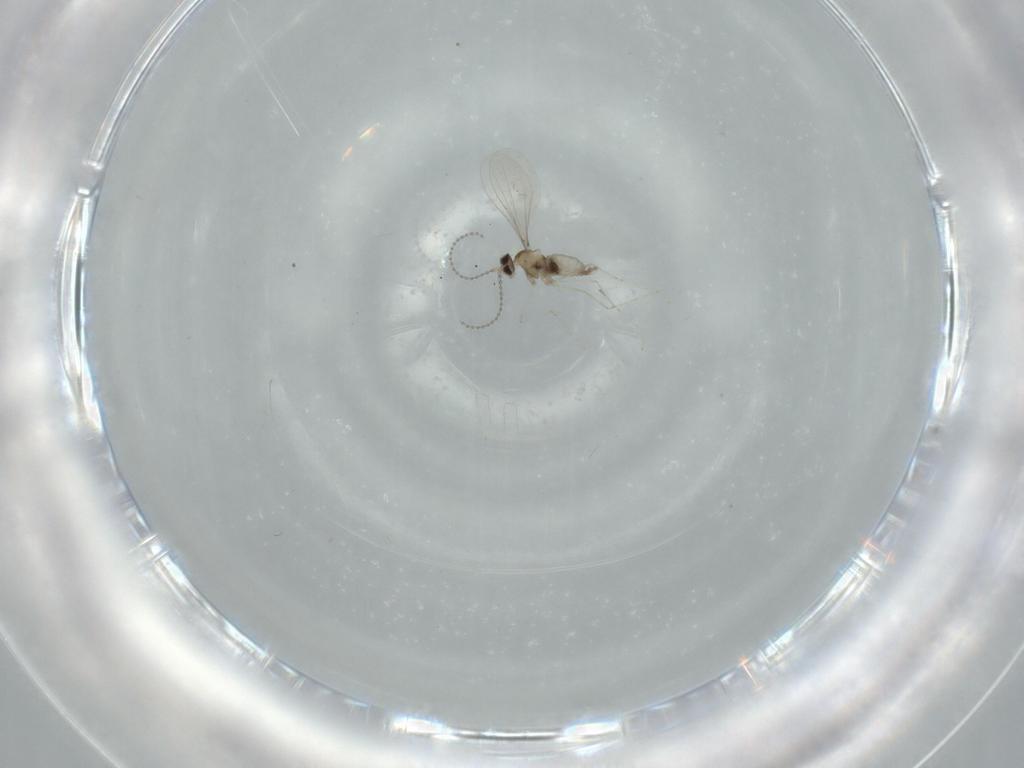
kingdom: Animalia
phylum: Arthropoda
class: Insecta
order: Diptera
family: Cecidomyiidae
